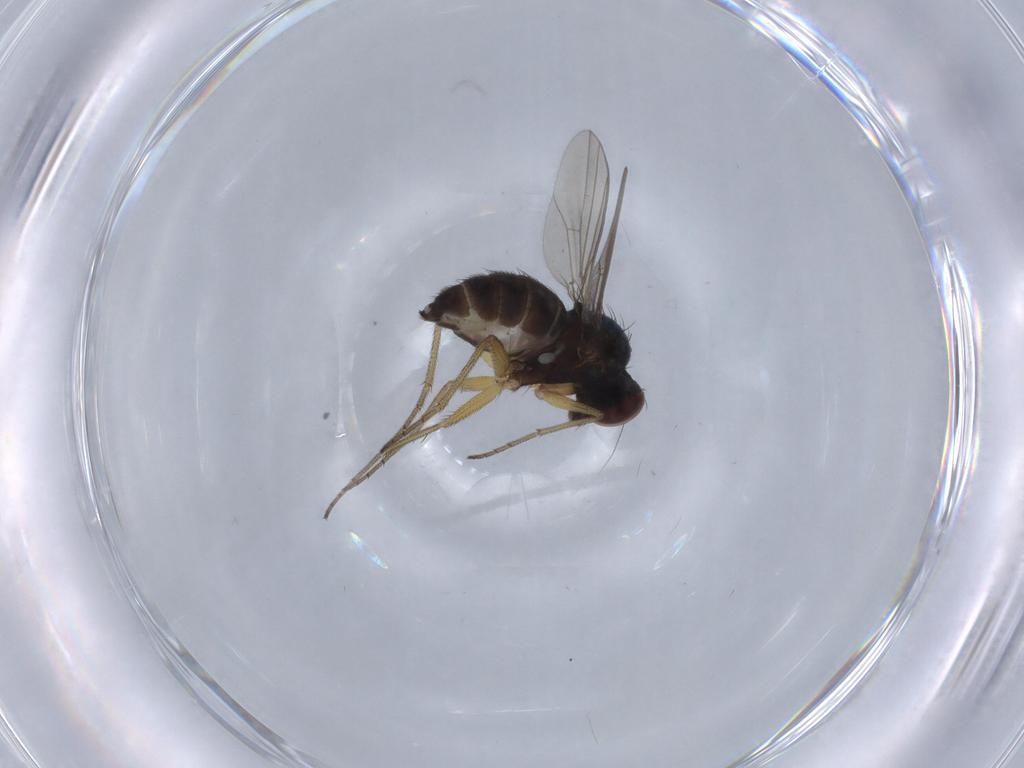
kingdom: Animalia
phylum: Arthropoda
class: Insecta
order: Diptera
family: Dolichopodidae
